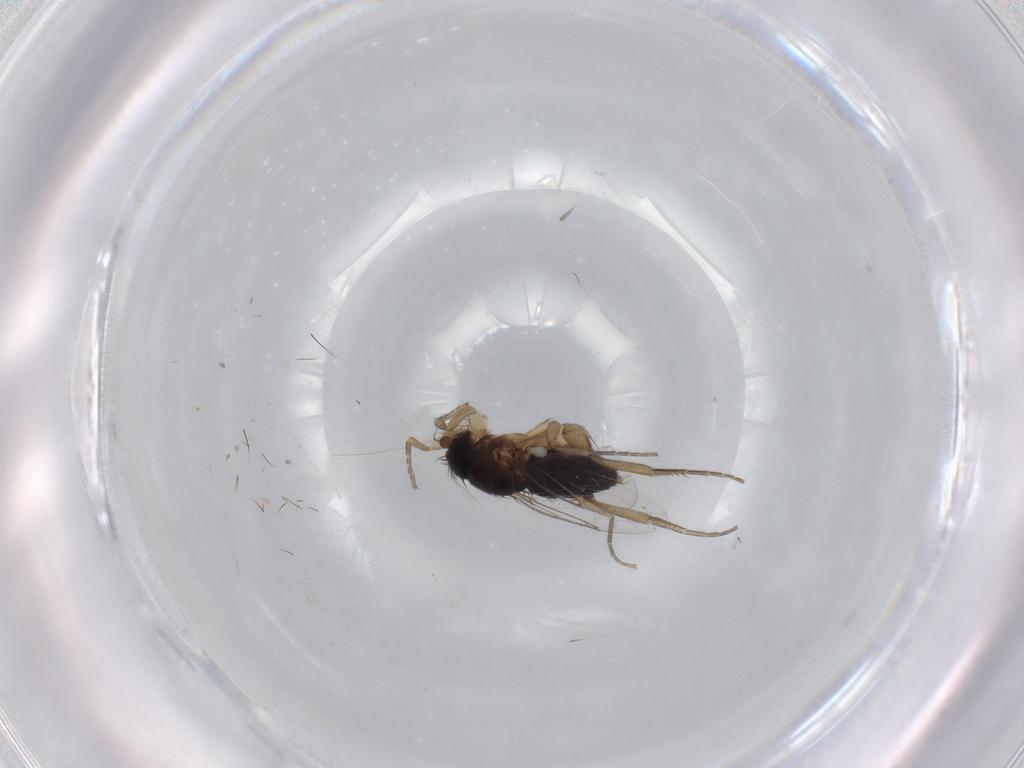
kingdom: Animalia
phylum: Arthropoda
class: Insecta
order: Diptera
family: Phoridae
